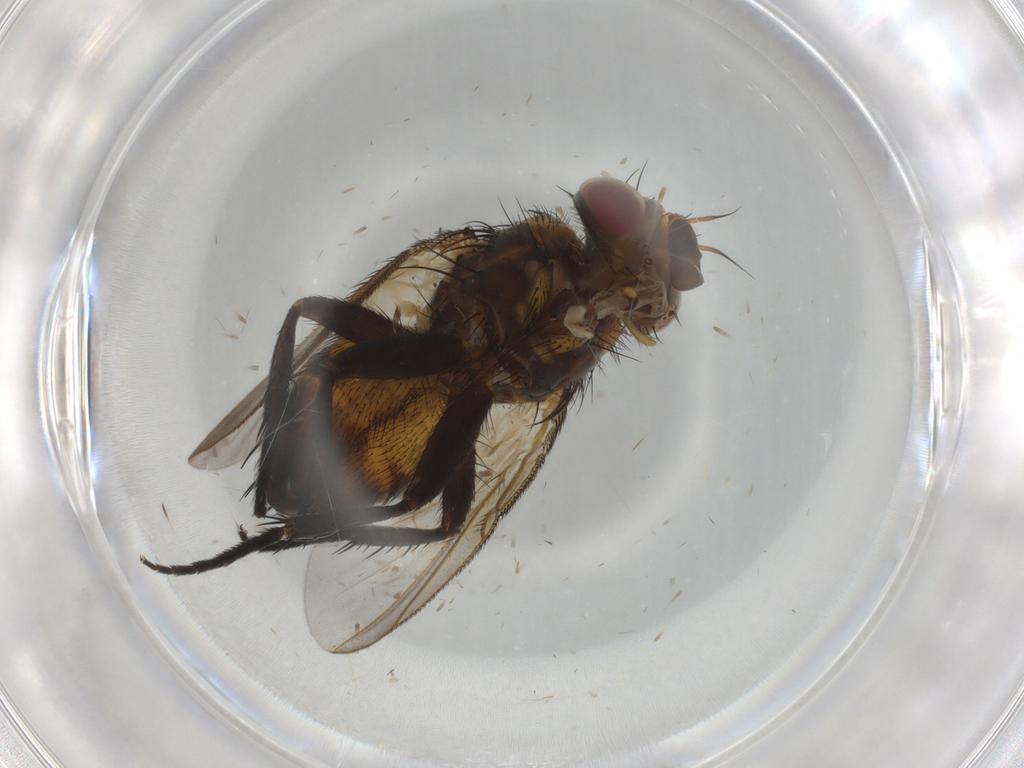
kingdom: Animalia
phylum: Arthropoda
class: Insecta
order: Diptera
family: Tachinidae
